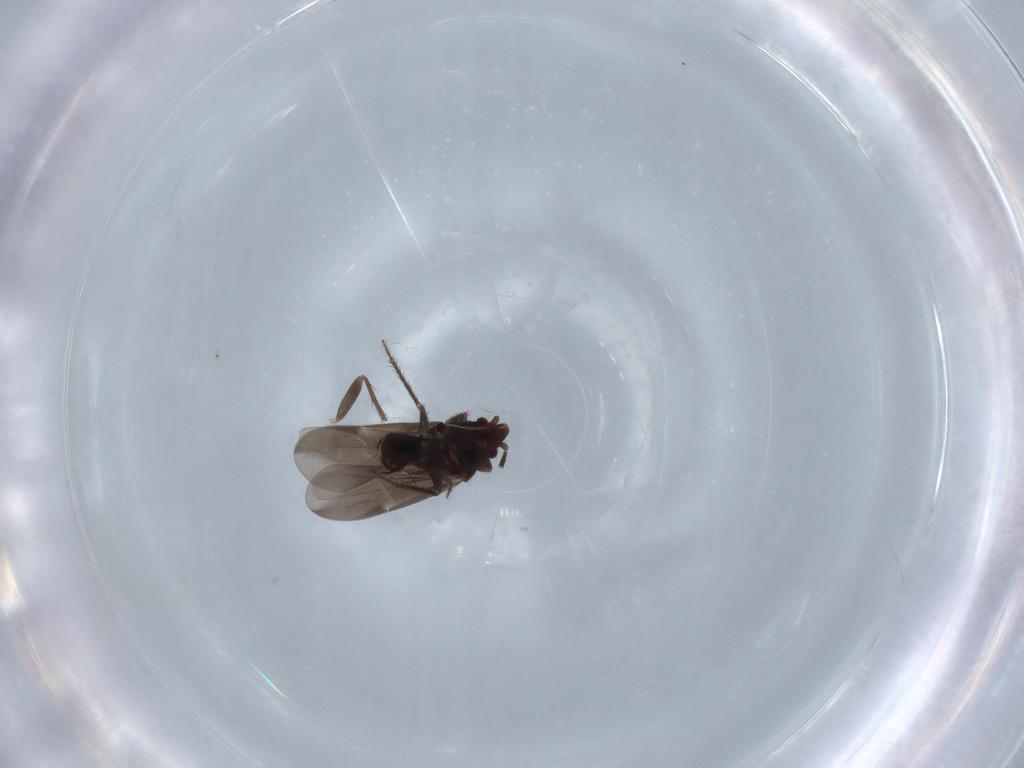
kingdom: Animalia
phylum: Arthropoda
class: Insecta
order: Hemiptera
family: Ceratocombidae
